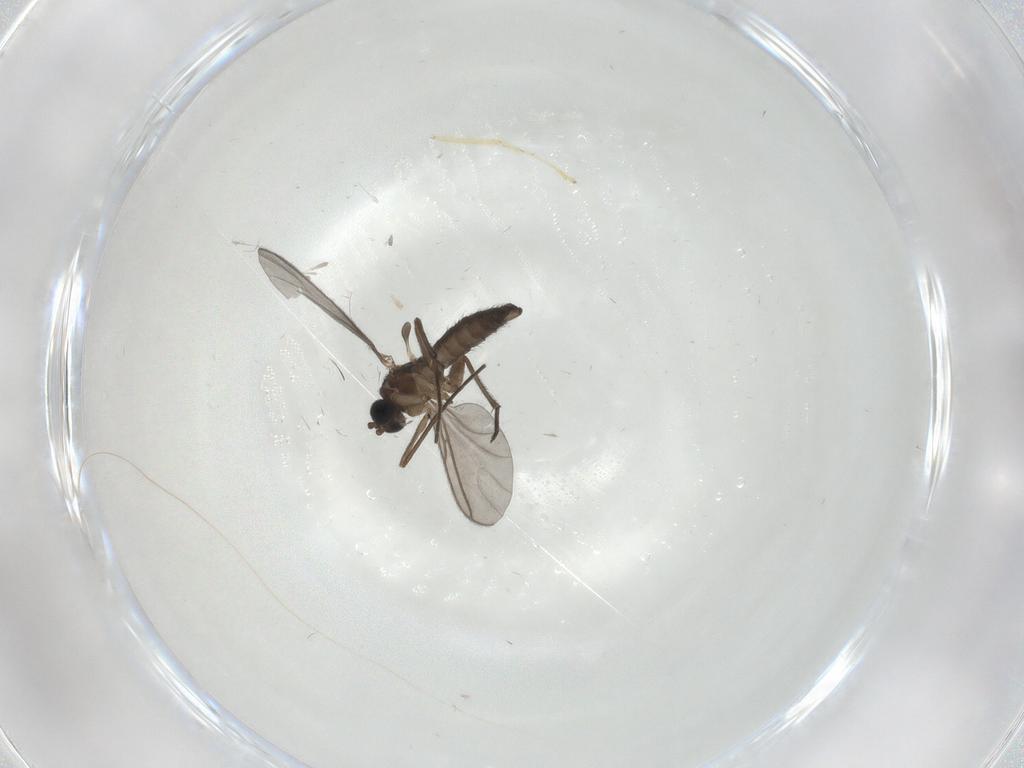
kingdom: Animalia
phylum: Arthropoda
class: Insecta
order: Diptera
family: Sciaridae
